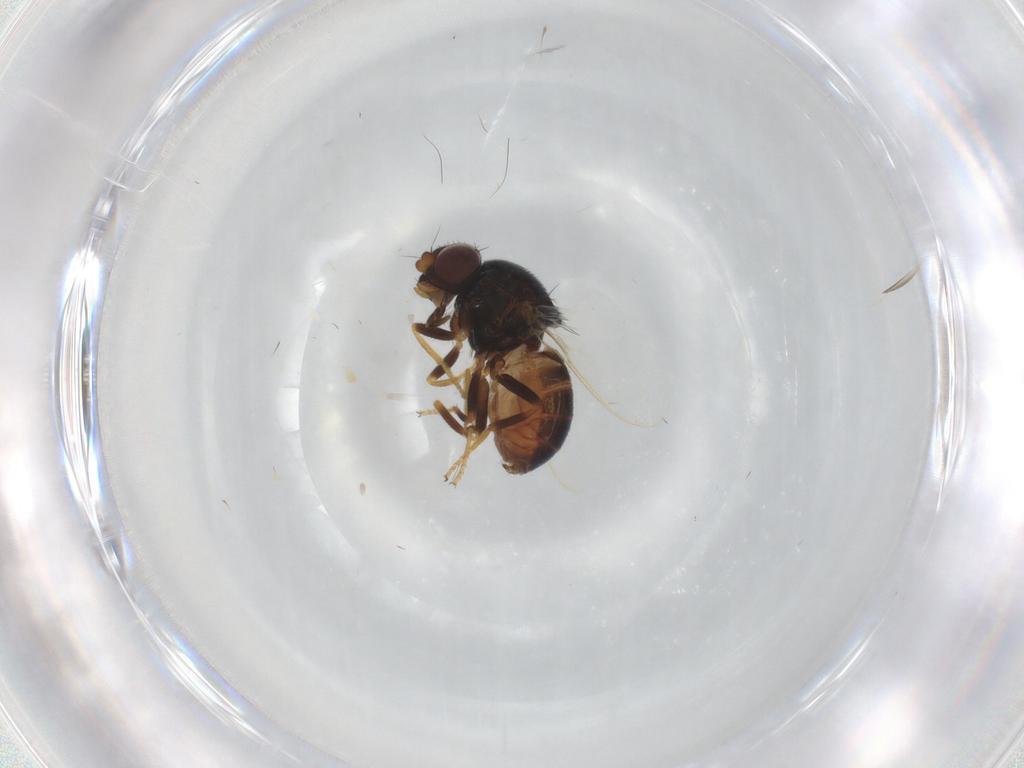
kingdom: Animalia
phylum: Arthropoda
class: Insecta
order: Diptera
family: Chloropidae
